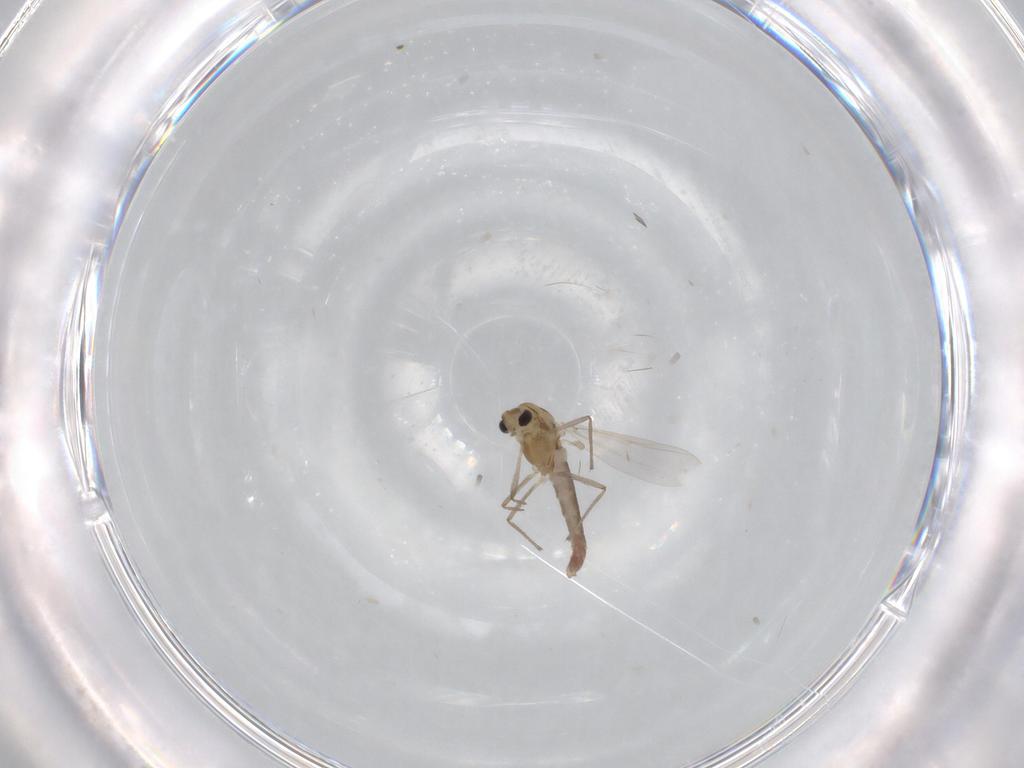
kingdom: Animalia
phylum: Arthropoda
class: Insecta
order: Diptera
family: Chironomidae
